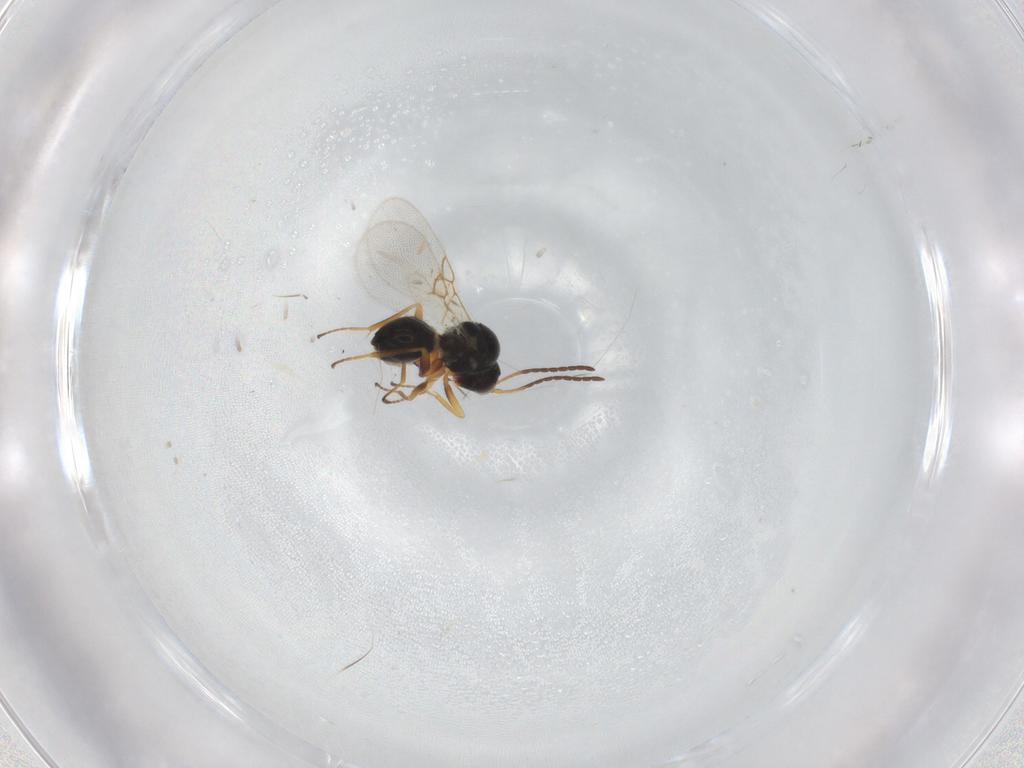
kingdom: Animalia
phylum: Arthropoda
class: Insecta
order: Hymenoptera
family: Figitidae
